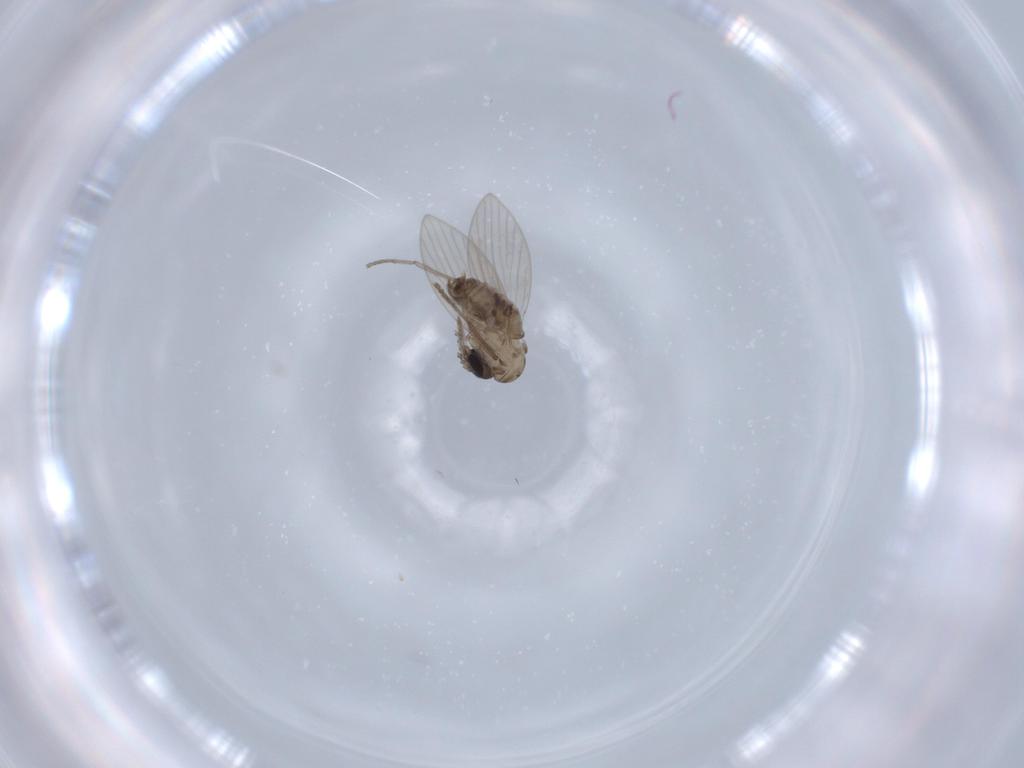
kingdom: Animalia
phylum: Arthropoda
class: Insecta
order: Diptera
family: Psychodidae
